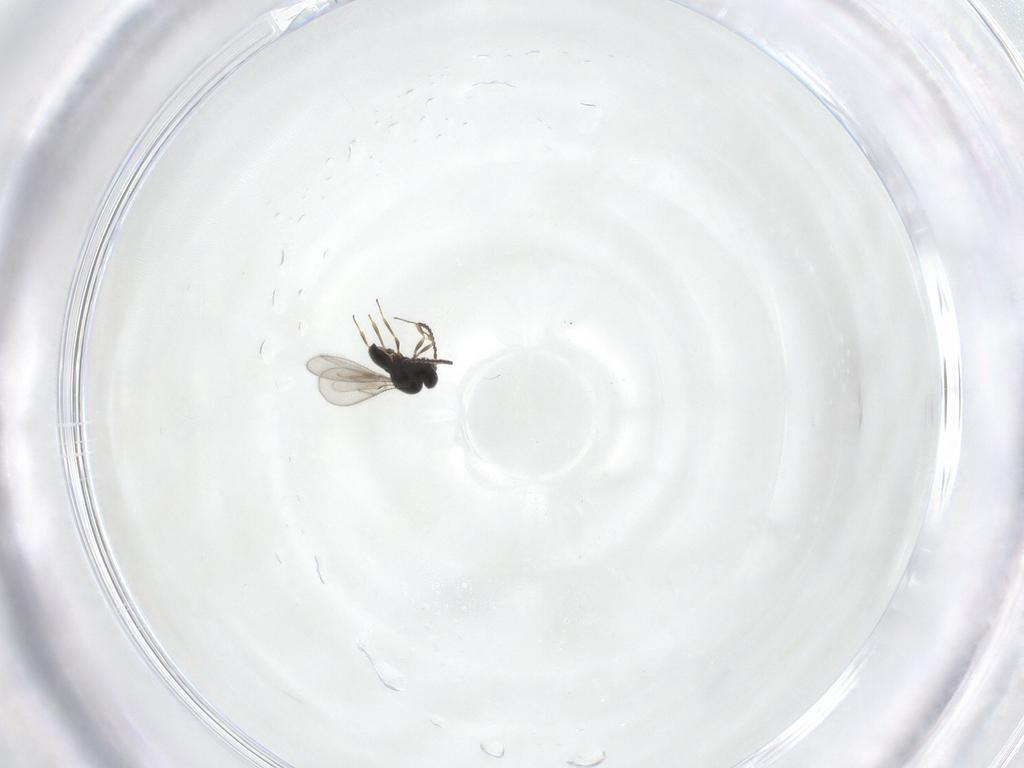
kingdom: Animalia
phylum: Arthropoda
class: Insecta
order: Hymenoptera
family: Scelionidae
